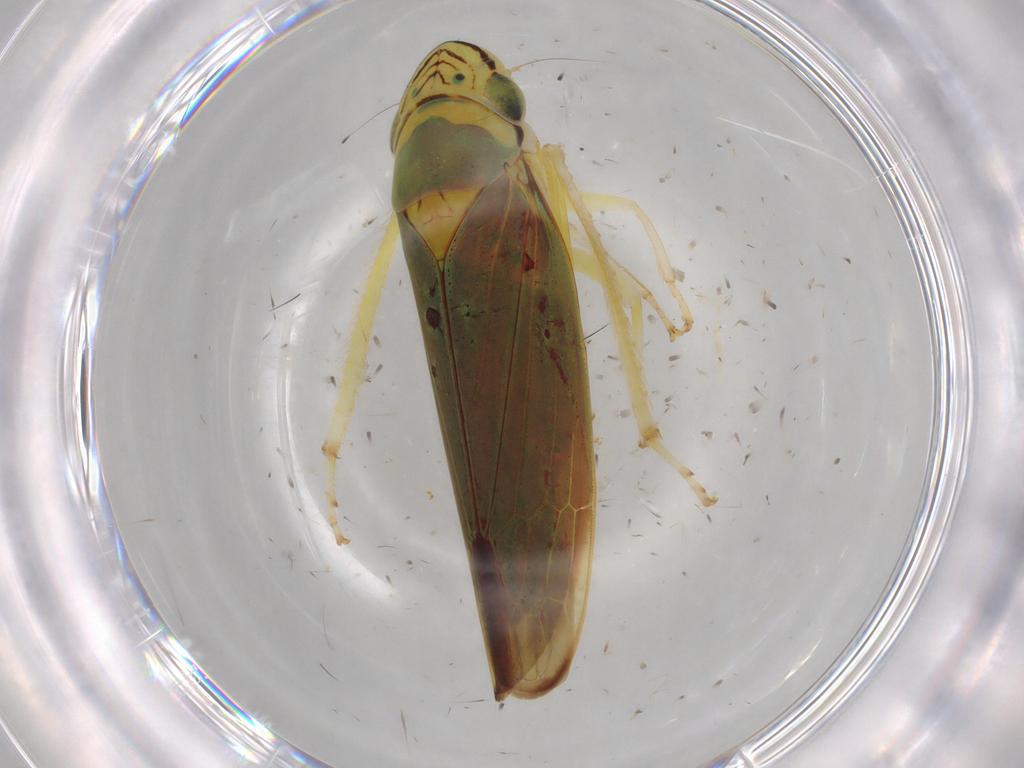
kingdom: Animalia
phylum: Arthropoda
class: Insecta
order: Hemiptera
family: Cicadellidae
